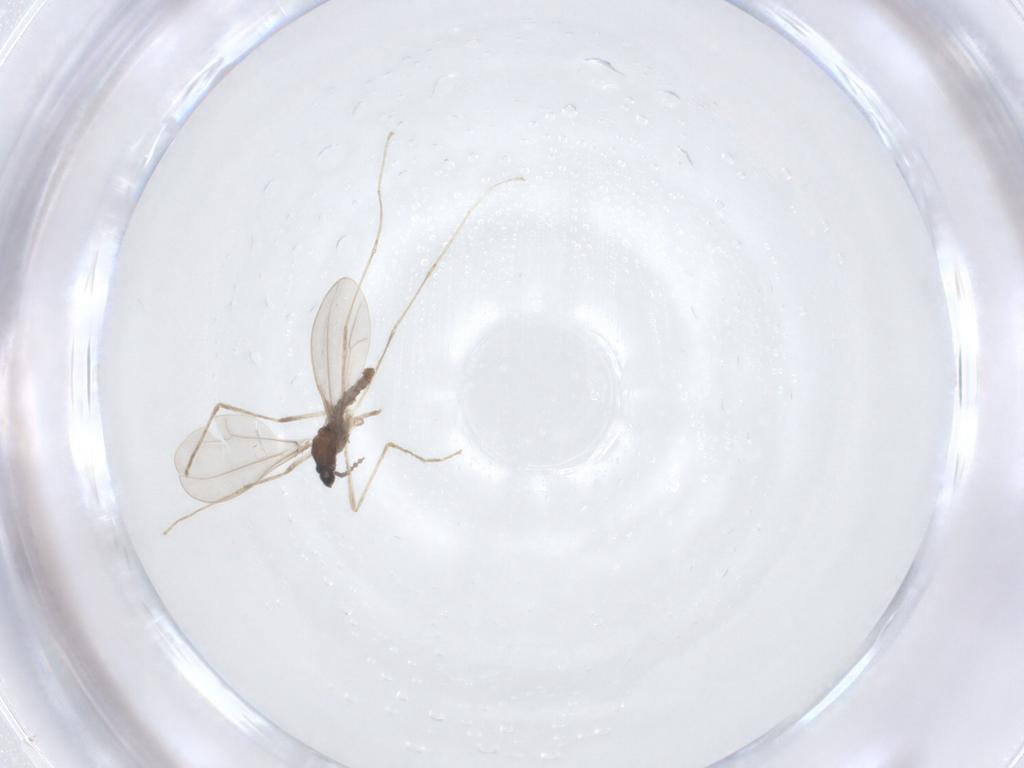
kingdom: Animalia
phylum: Arthropoda
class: Insecta
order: Diptera
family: Cecidomyiidae
